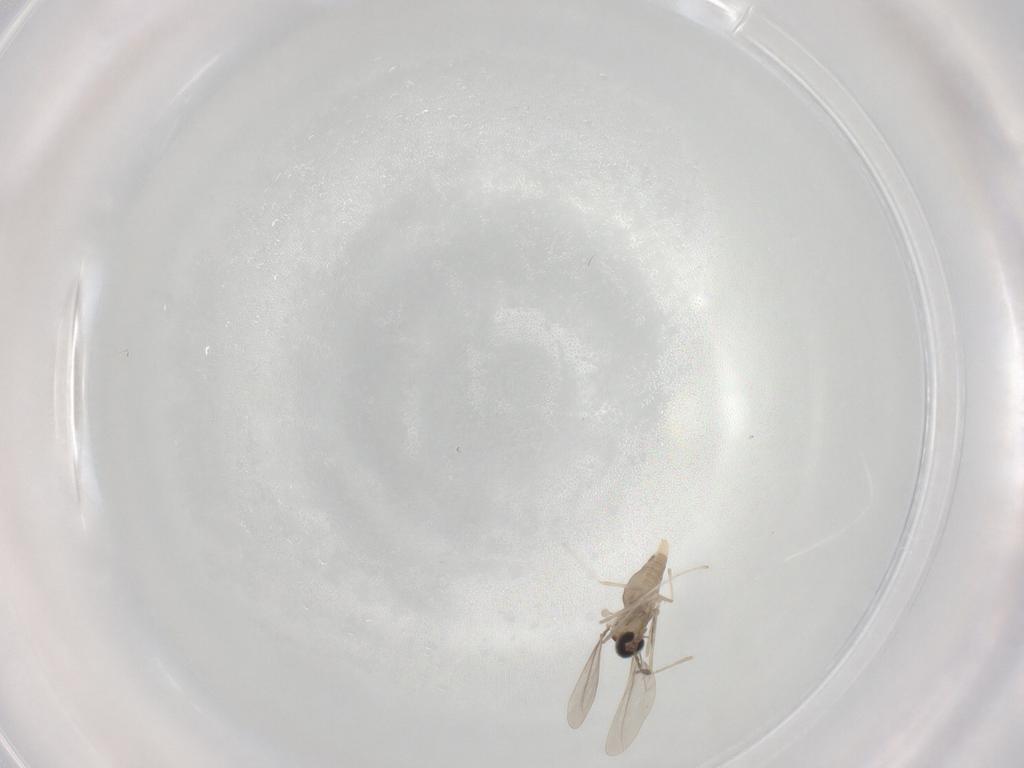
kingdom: Animalia
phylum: Arthropoda
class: Insecta
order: Diptera
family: Cecidomyiidae
